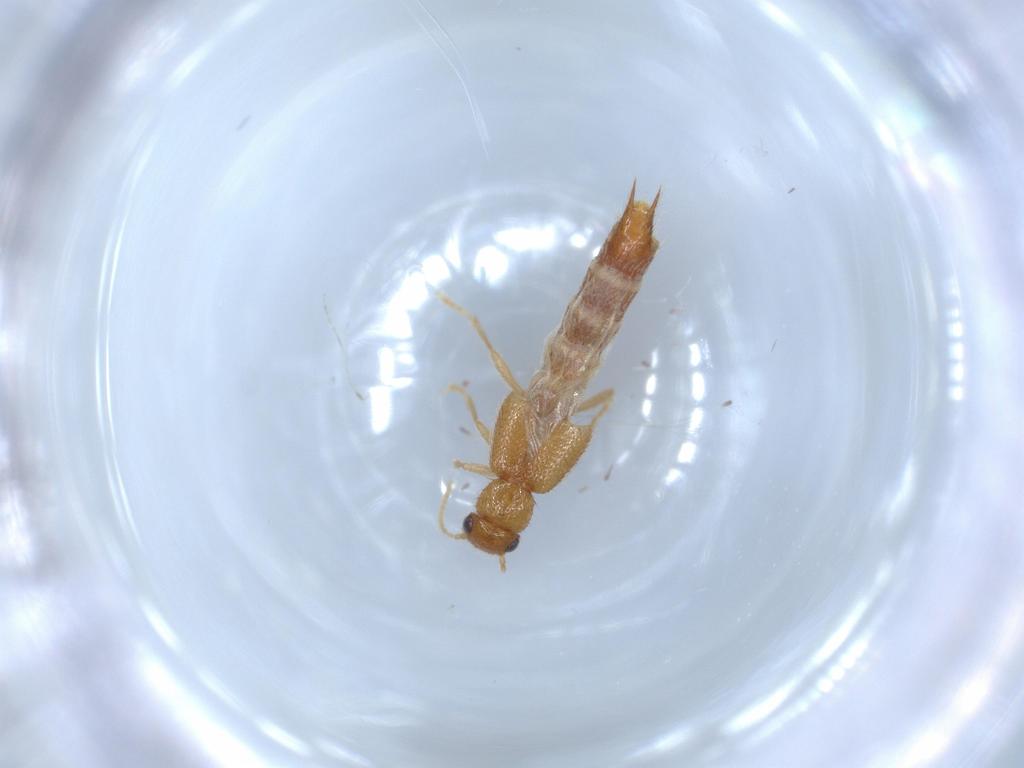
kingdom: Animalia
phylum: Arthropoda
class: Insecta
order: Coleoptera
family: Staphylinidae
